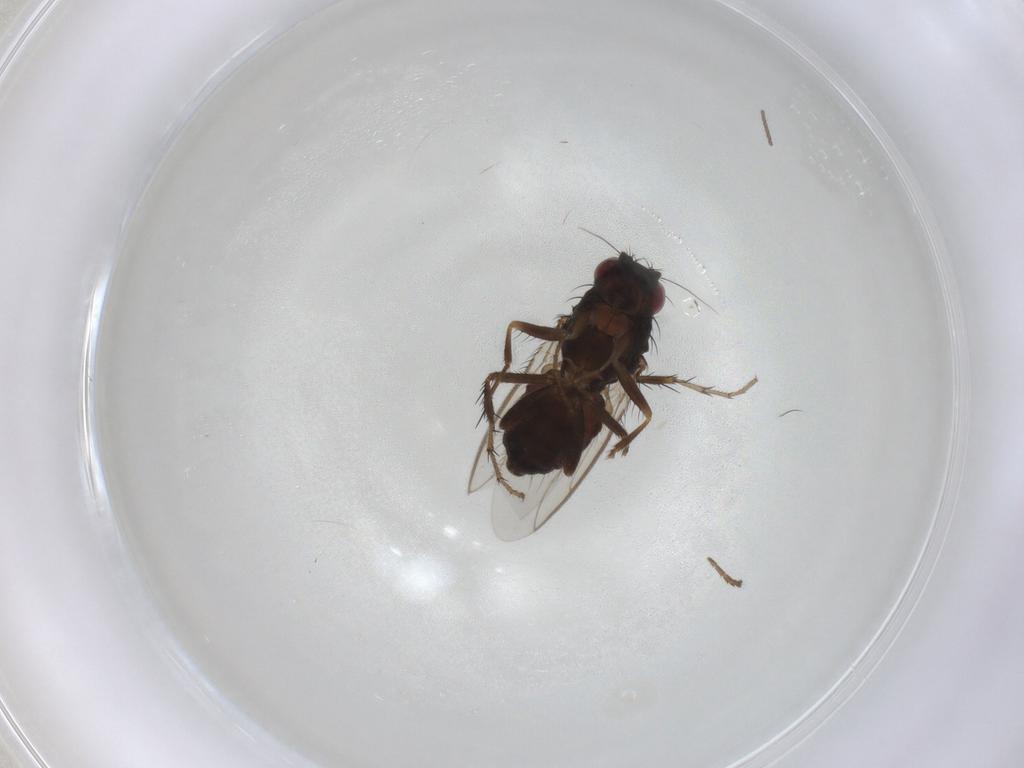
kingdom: Animalia
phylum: Arthropoda
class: Insecta
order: Diptera
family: Sphaeroceridae
